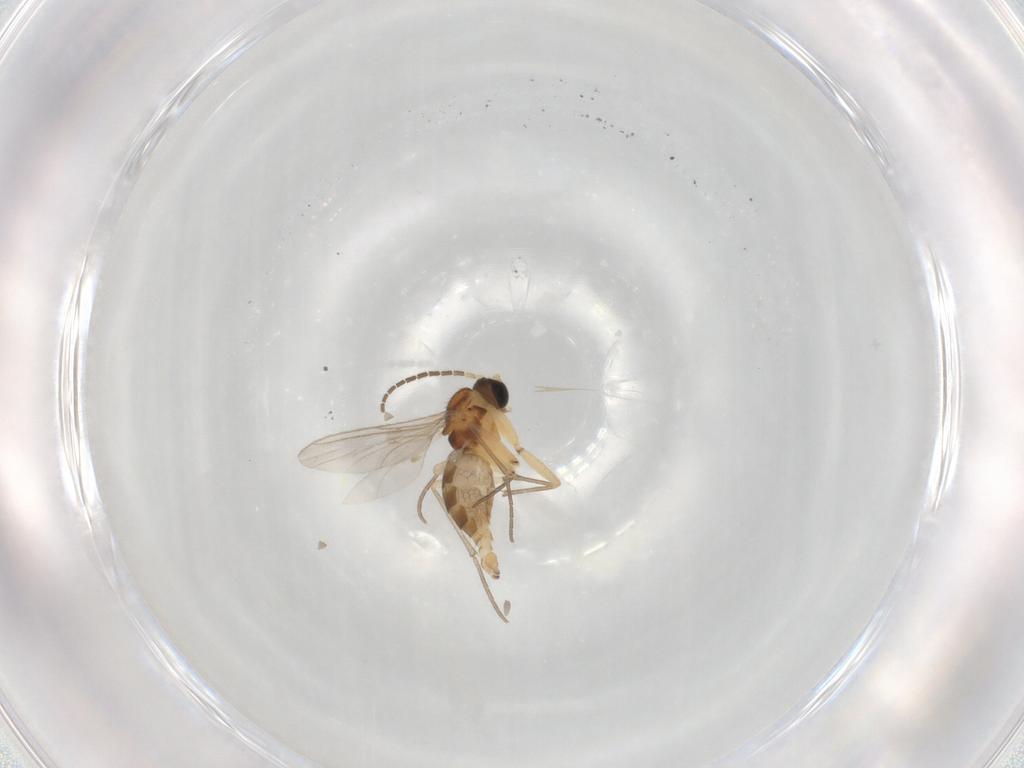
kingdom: Animalia
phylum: Arthropoda
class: Insecta
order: Diptera
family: Sciaridae
